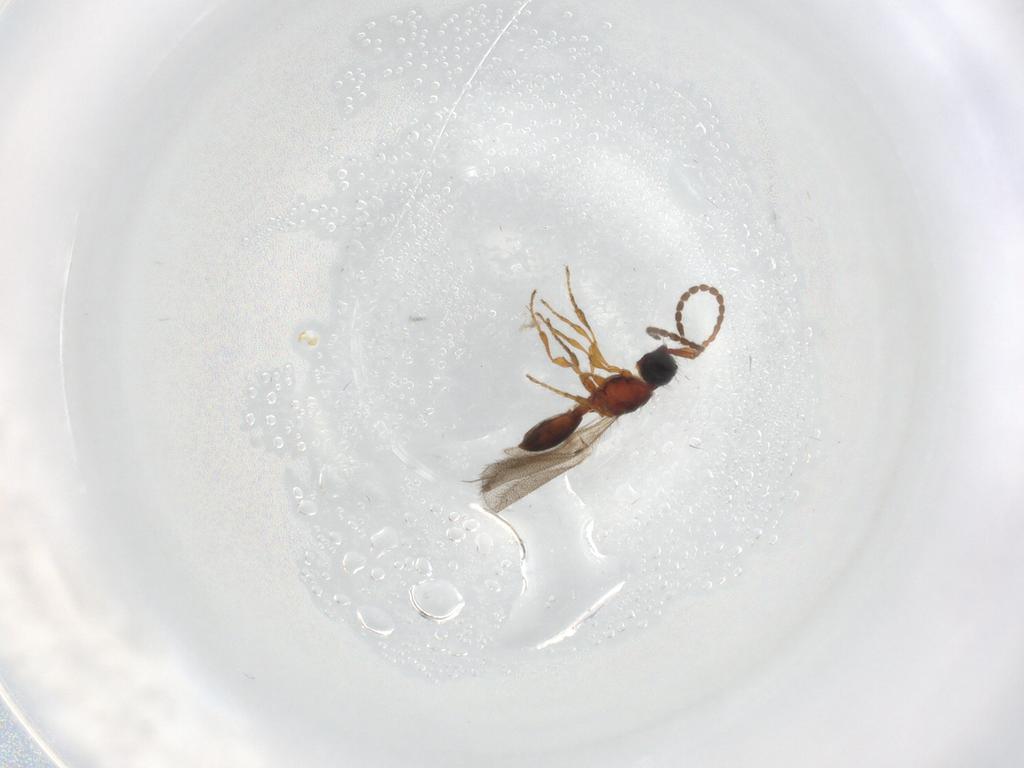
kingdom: Animalia
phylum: Arthropoda
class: Insecta
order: Hymenoptera
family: Diapriidae
